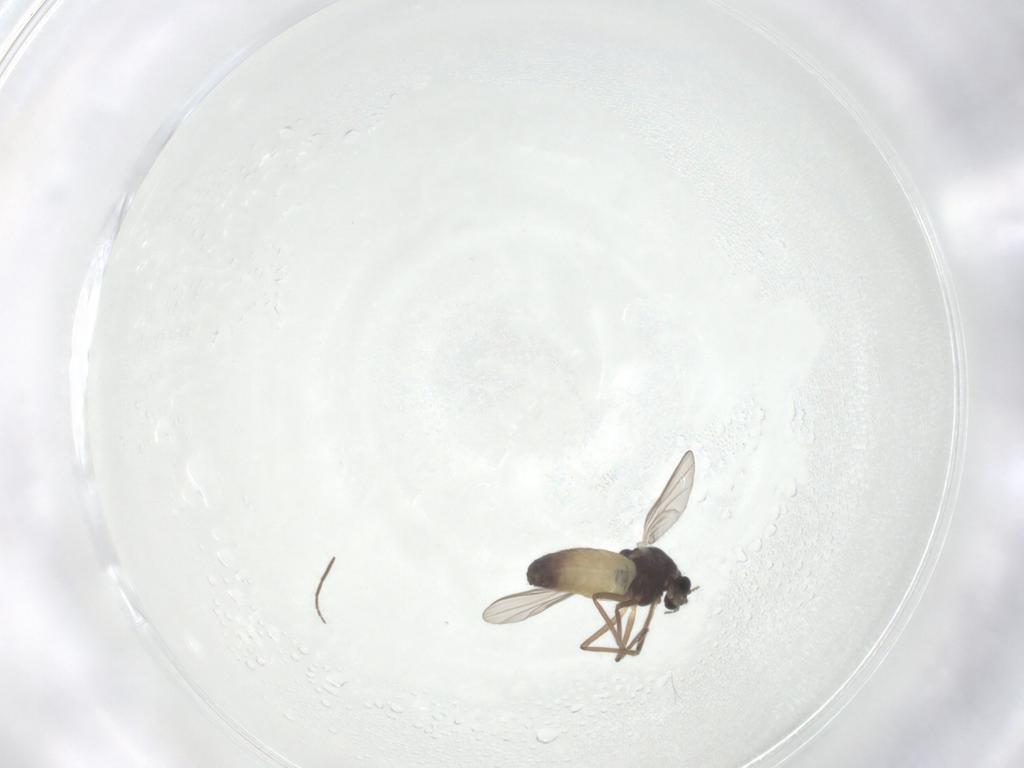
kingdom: Animalia
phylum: Arthropoda
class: Insecta
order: Diptera
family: Chironomidae
